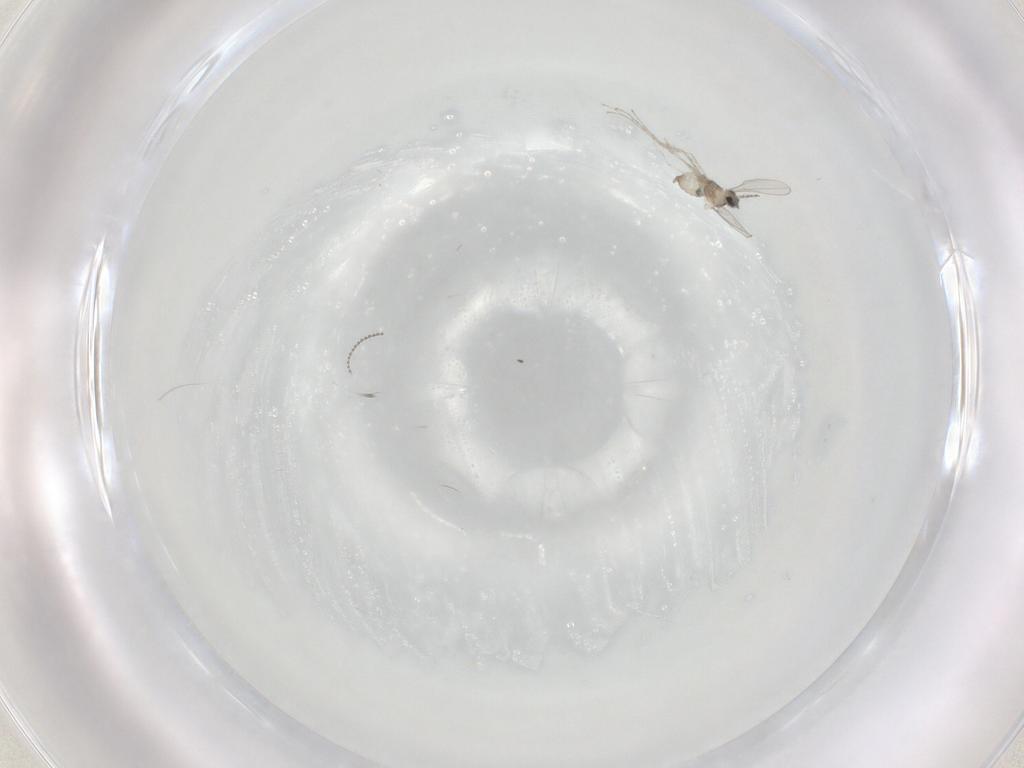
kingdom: Animalia
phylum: Arthropoda
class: Insecta
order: Diptera
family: Cecidomyiidae
